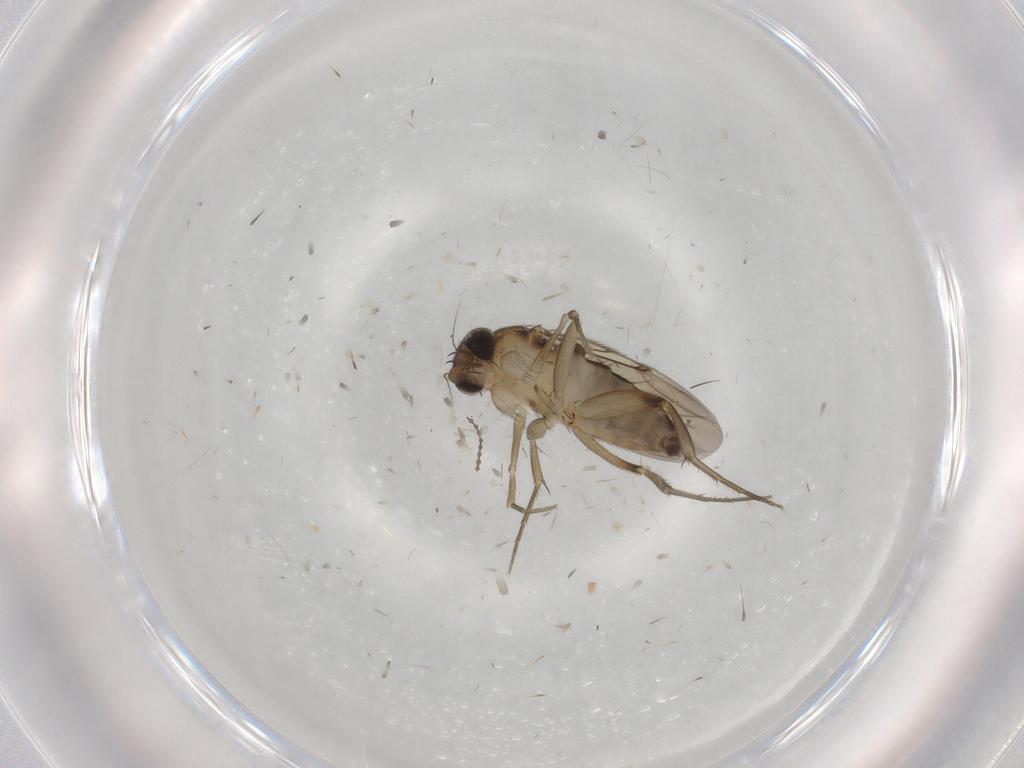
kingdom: Animalia
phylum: Arthropoda
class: Insecta
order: Diptera
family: Phoridae
